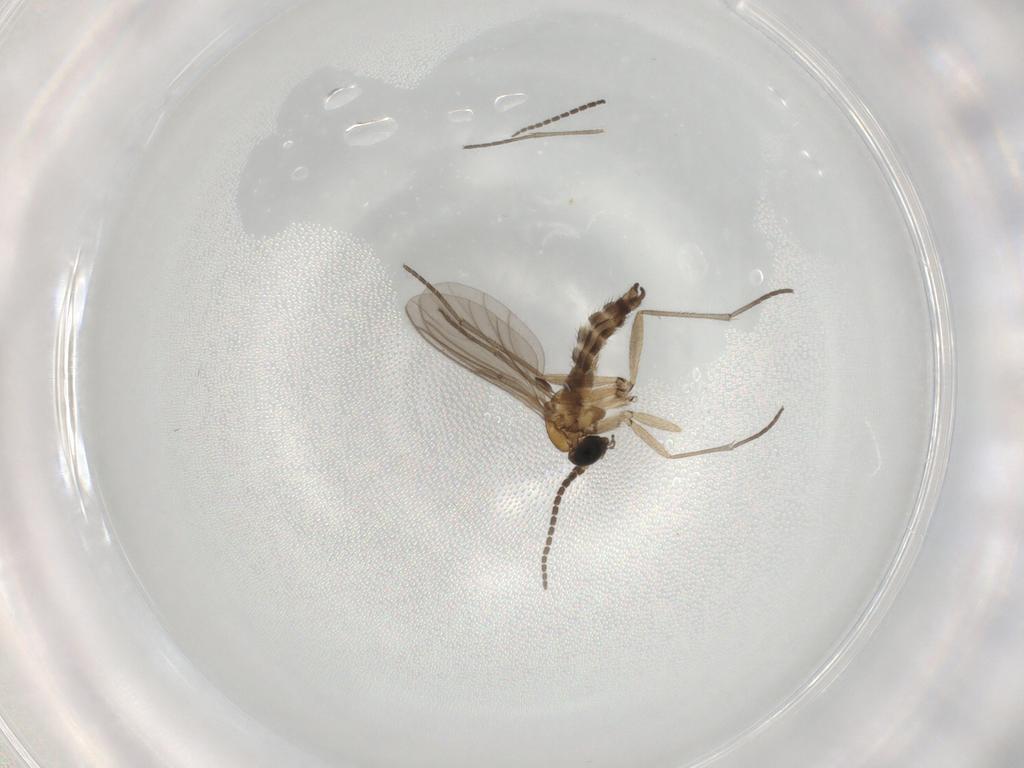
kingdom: Animalia
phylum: Arthropoda
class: Insecta
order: Diptera
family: Sciaridae
